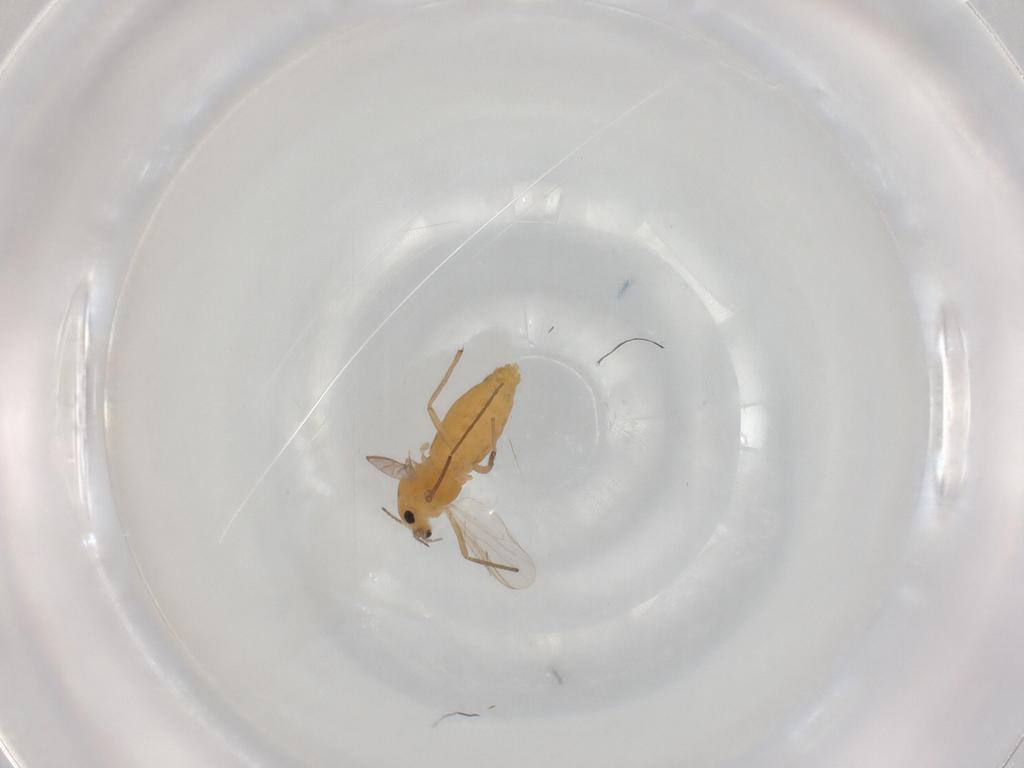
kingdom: Animalia
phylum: Arthropoda
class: Insecta
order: Diptera
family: Chironomidae
